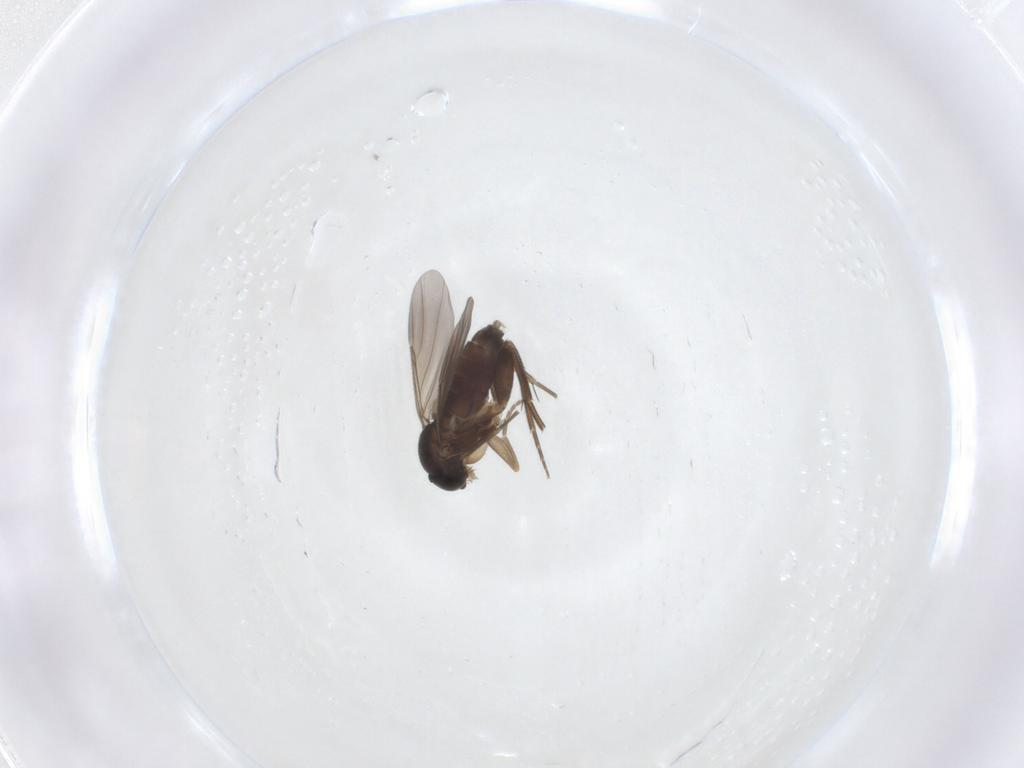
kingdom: Animalia
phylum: Arthropoda
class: Insecta
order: Diptera
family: Phoridae
